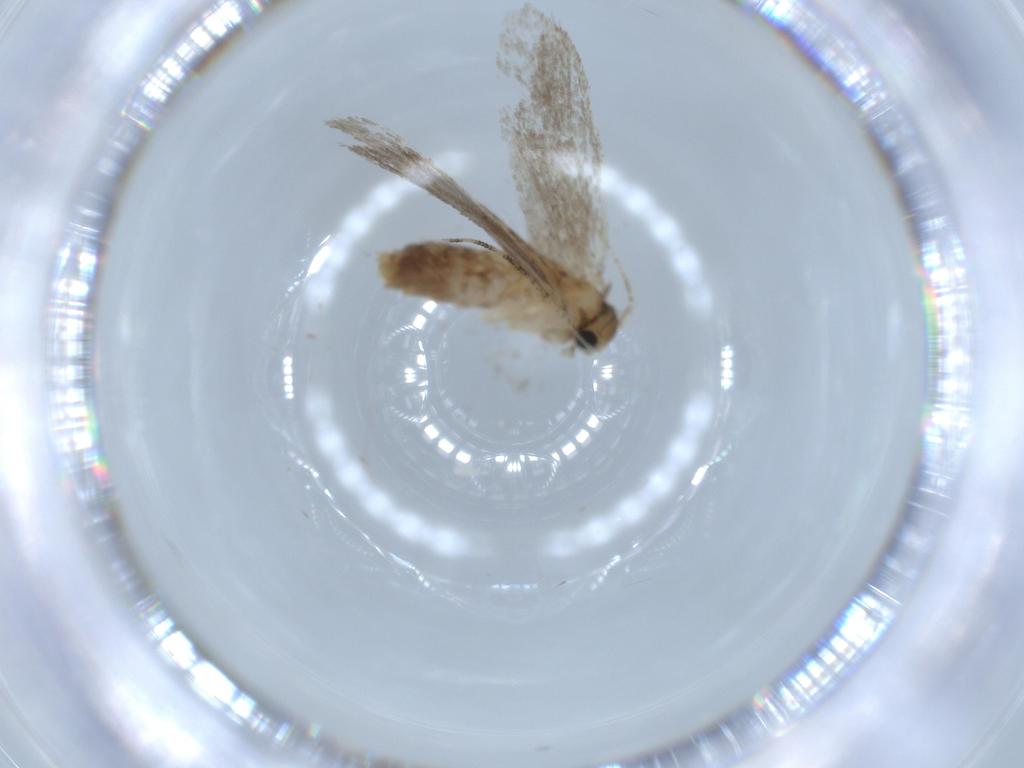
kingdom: Animalia
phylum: Arthropoda
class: Insecta
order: Lepidoptera
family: Tineidae
